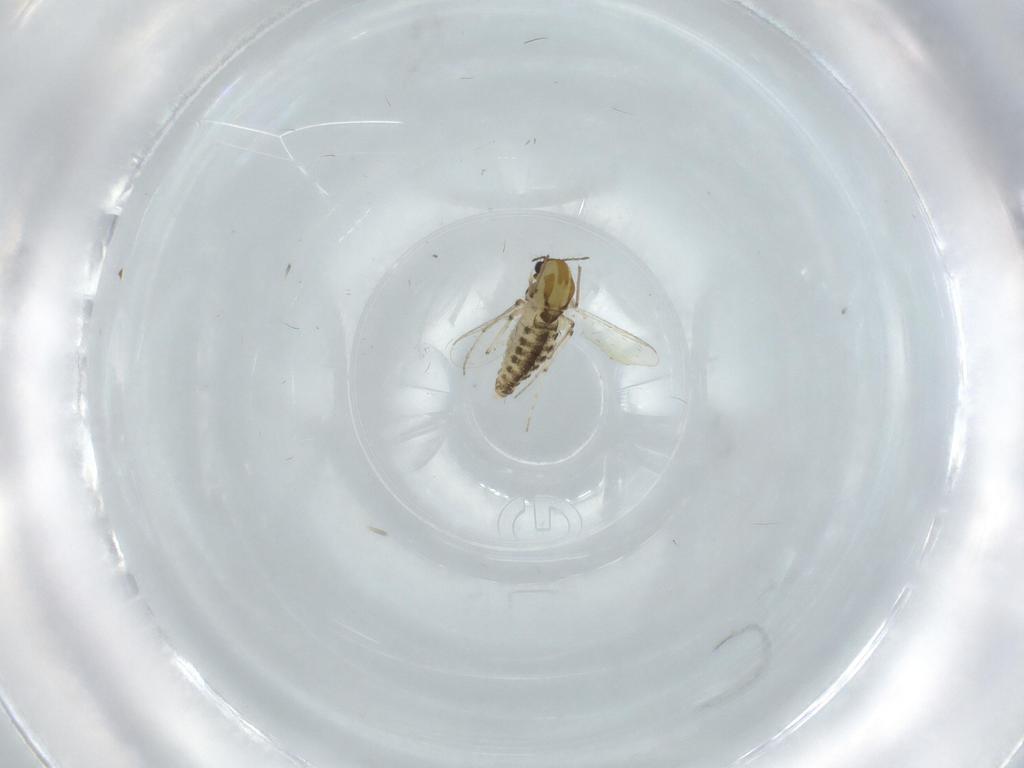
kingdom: Animalia
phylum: Arthropoda
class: Insecta
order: Diptera
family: Chironomidae
